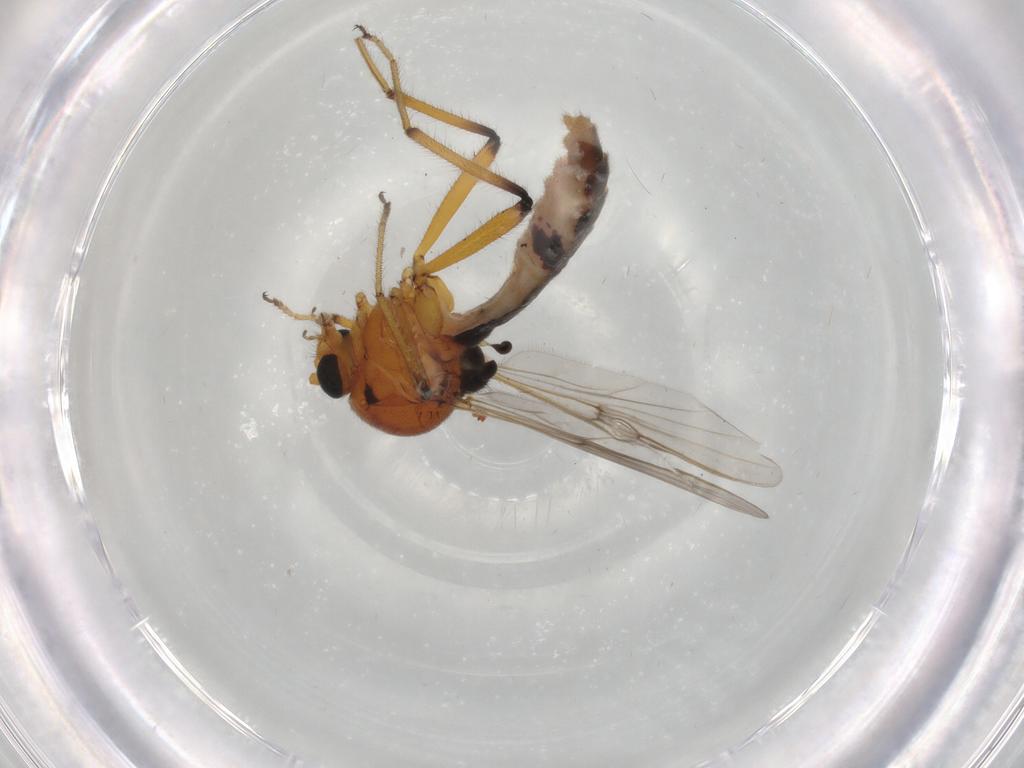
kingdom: Animalia
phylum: Arthropoda
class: Insecta
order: Diptera
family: Ceratopogonidae
